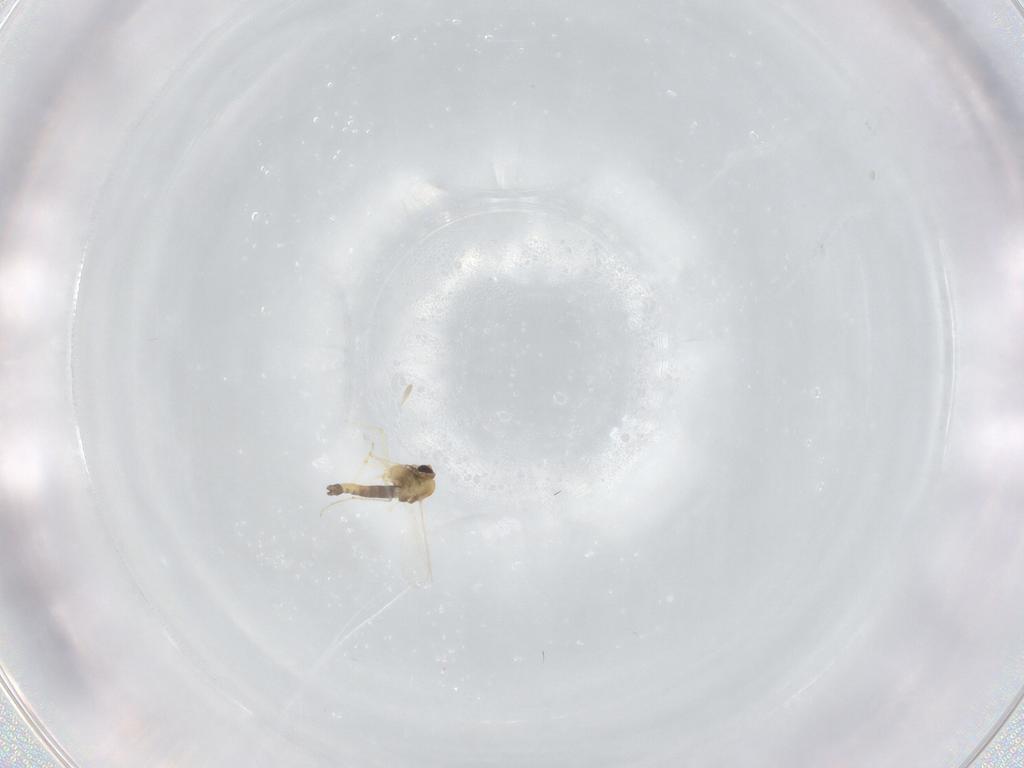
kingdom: Animalia
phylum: Arthropoda
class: Insecta
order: Diptera
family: Chironomidae
